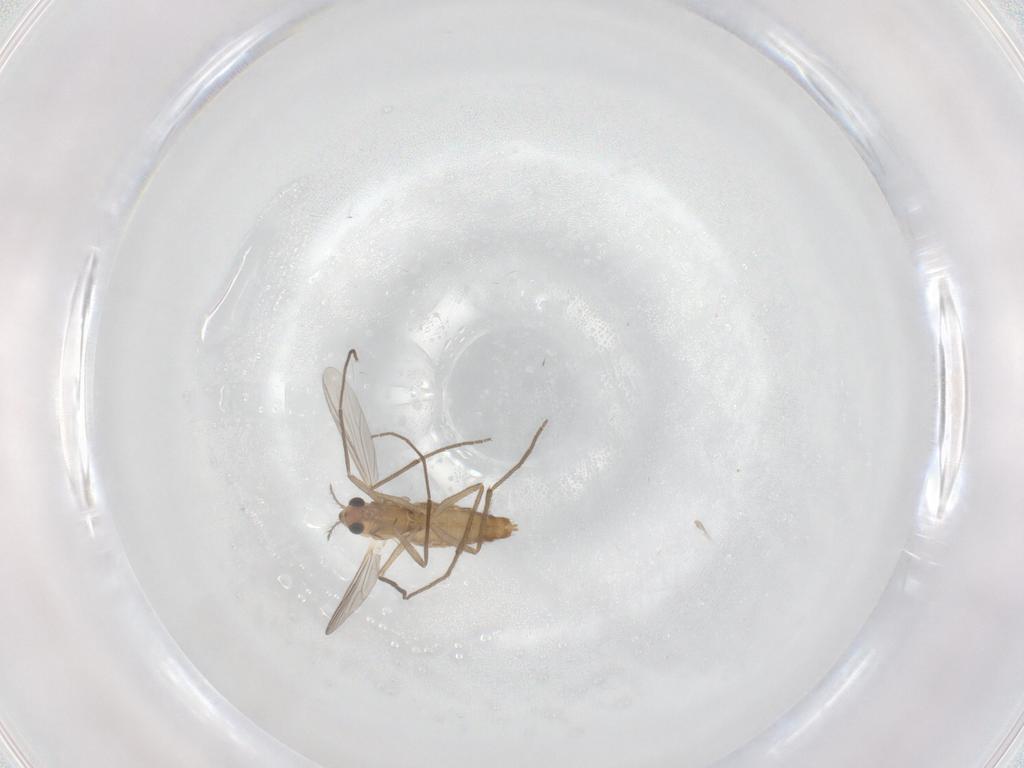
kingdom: Animalia
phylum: Arthropoda
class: Insecta
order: Diptera
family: Chironomidae
